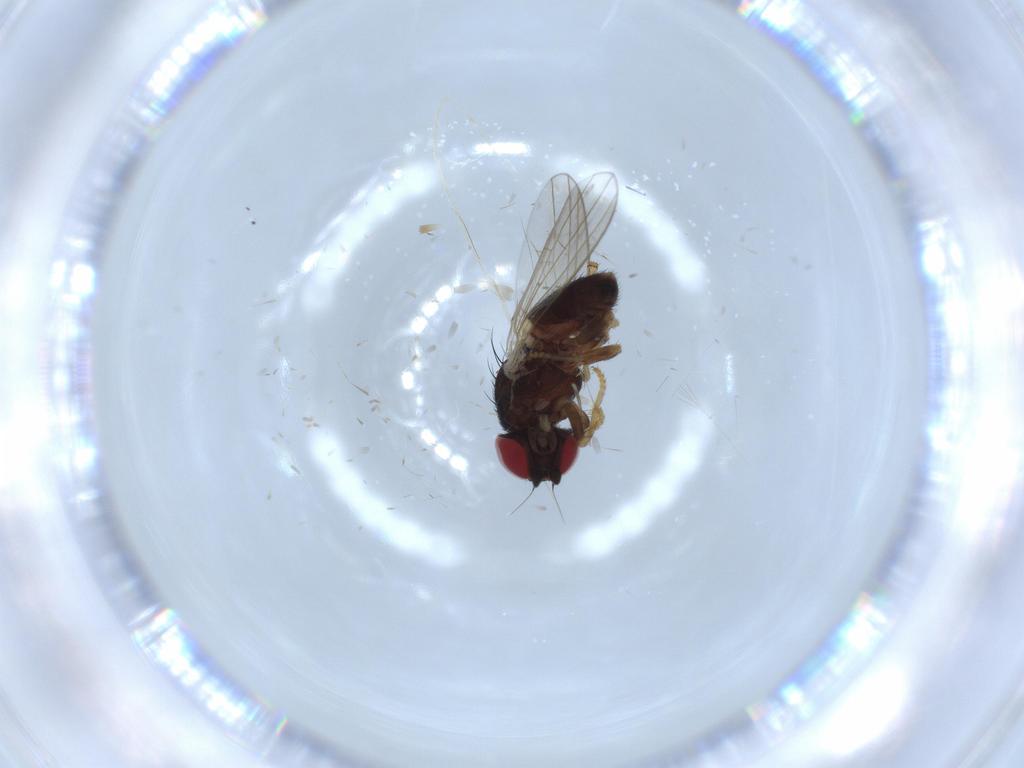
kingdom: Animalia
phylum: Arthropoda
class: Insecta
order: Diptera
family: Chamaemyiidae
